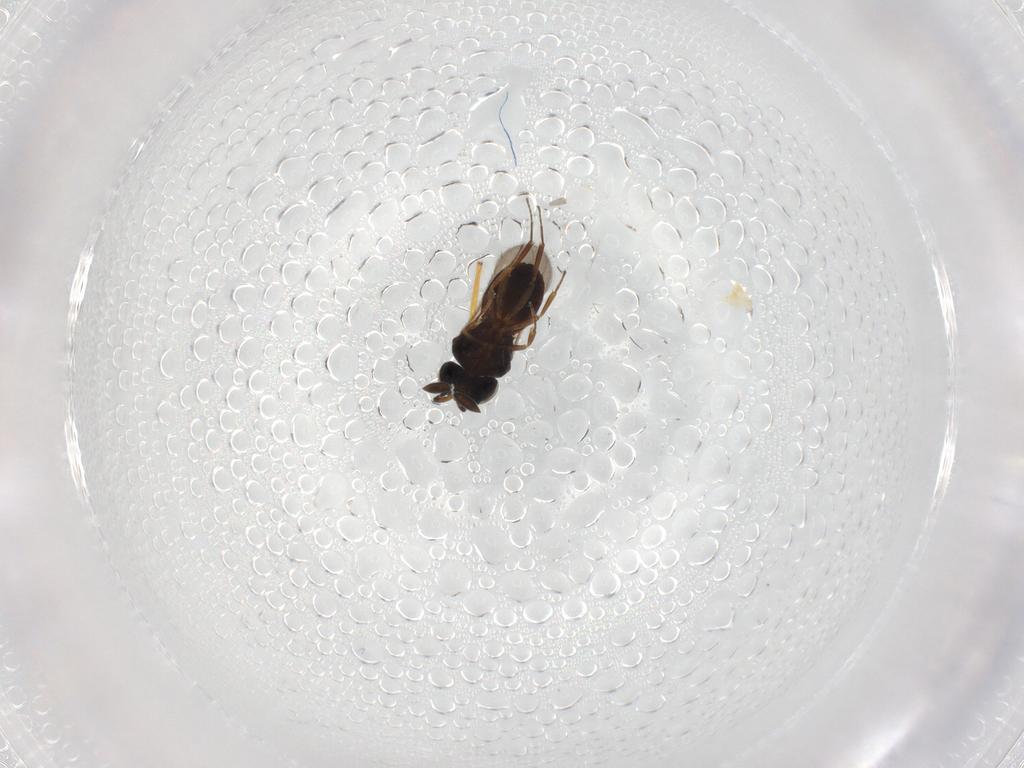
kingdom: Animalia
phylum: Arthropoda
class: Insecta
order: Hymenoptera
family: Scelionidae
